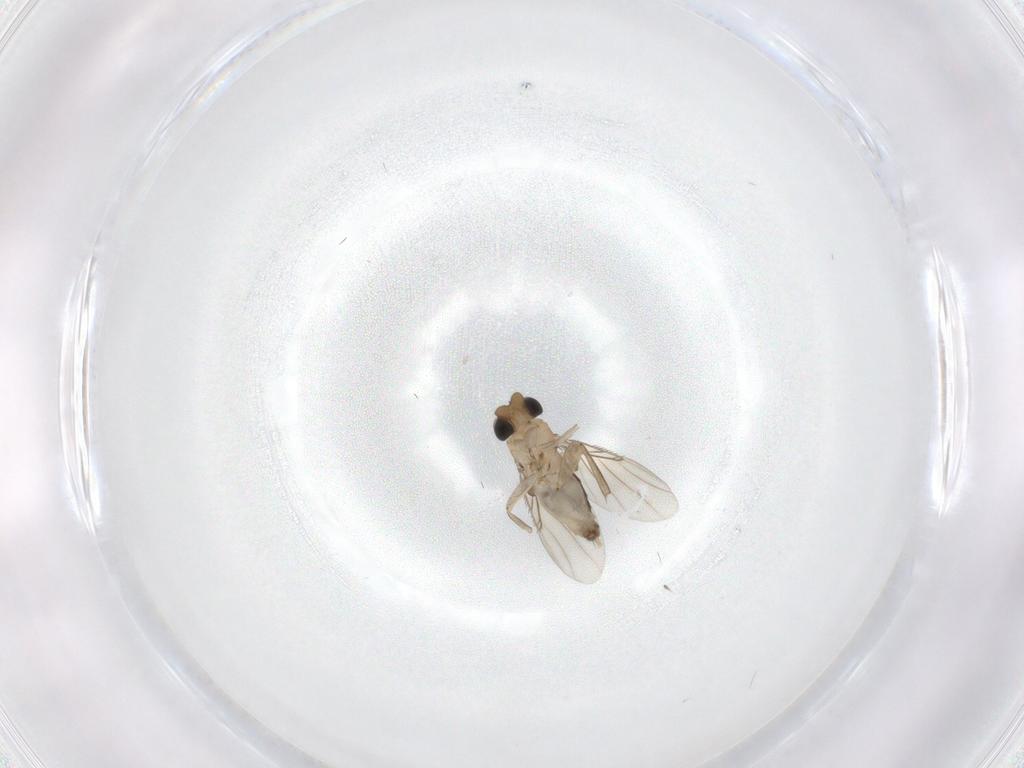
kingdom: Animalia
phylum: Arthropoda
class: Insecta
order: Diptera
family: Phoridae
